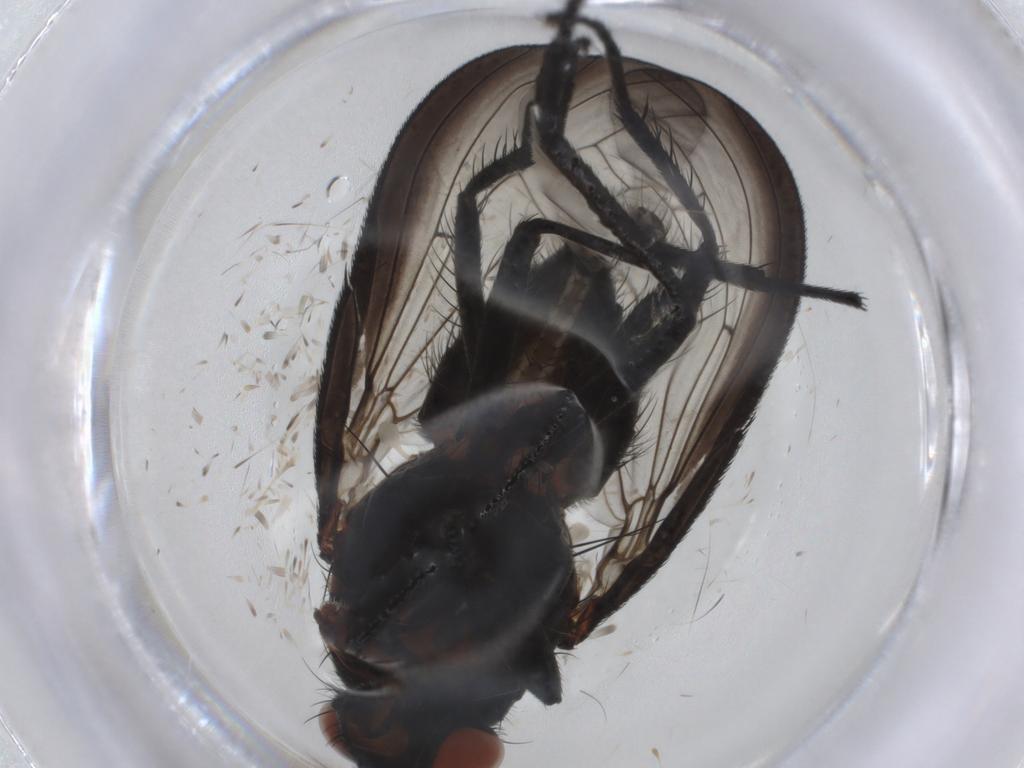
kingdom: Animalia
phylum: Arthropoda
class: Insecta
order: Diptera
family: Anthomyiidae
